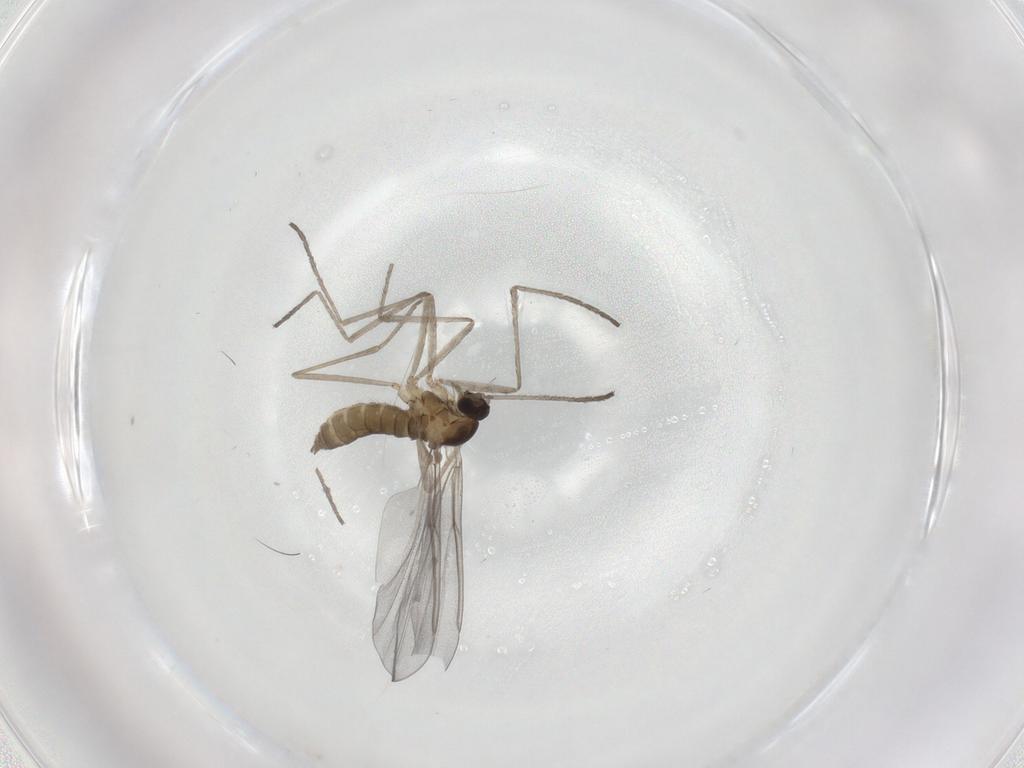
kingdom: Animalia
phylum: Arthropoda
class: Insecta
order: Diptera
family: Cecidomyiidae
